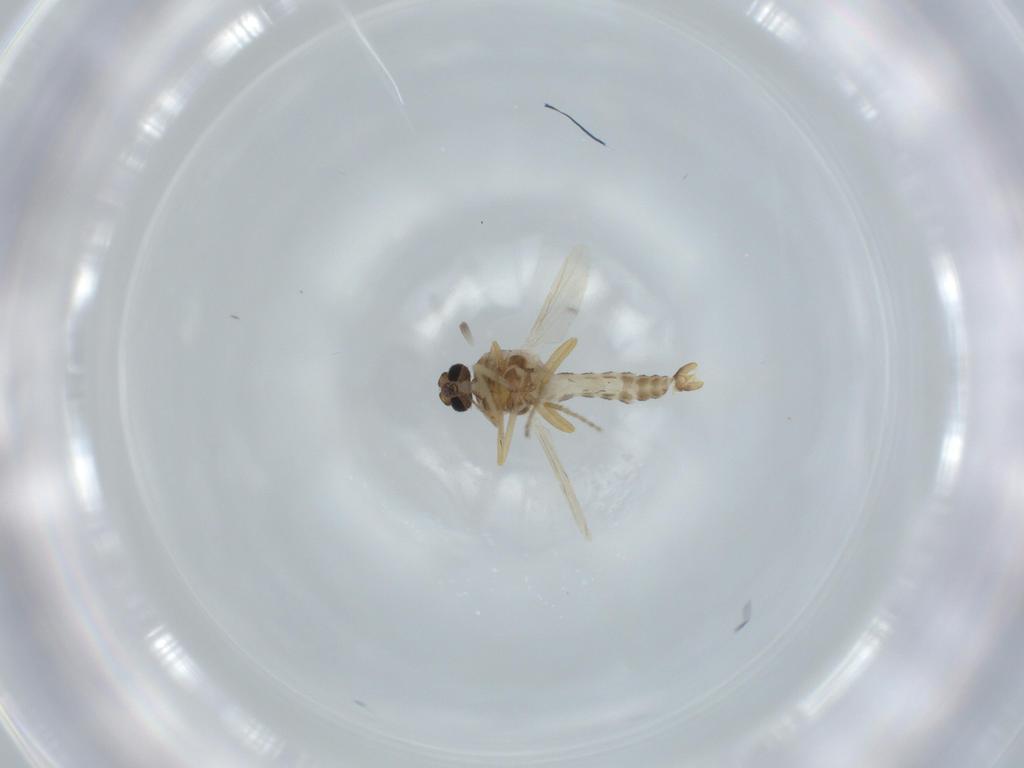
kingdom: Animalia
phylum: Arthropoda
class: Insecta
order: Diptera
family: Ceratopogonidae
